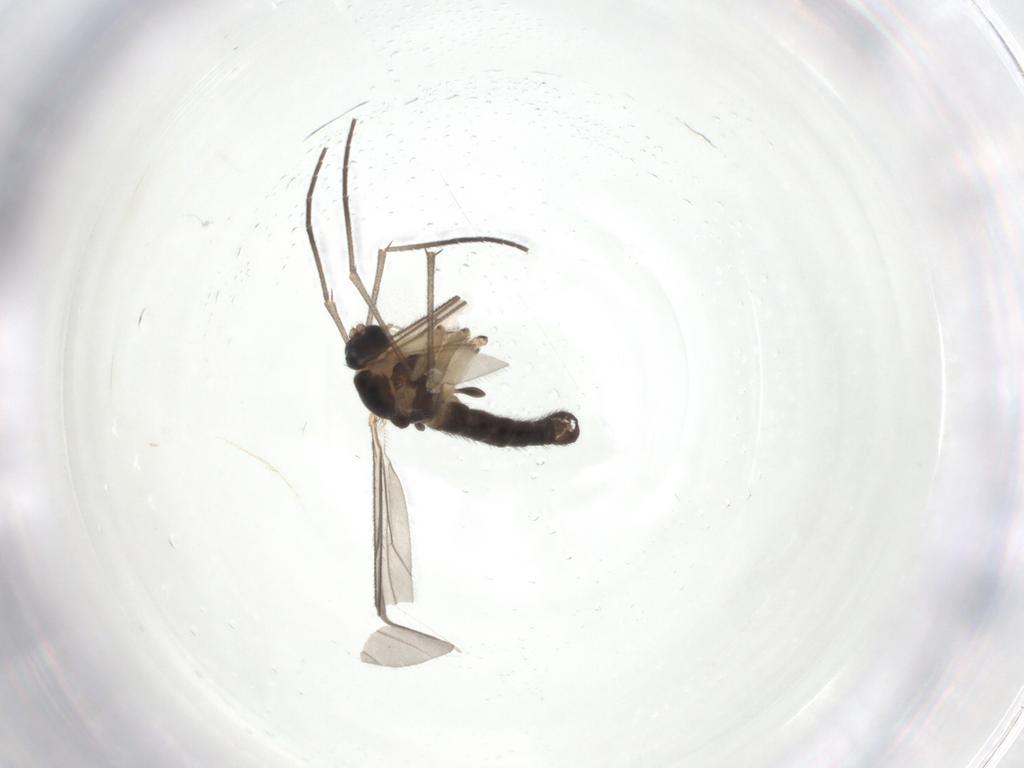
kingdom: Animalia
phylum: Arthropoda
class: Insecta
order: Diptera
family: Sciaridae
